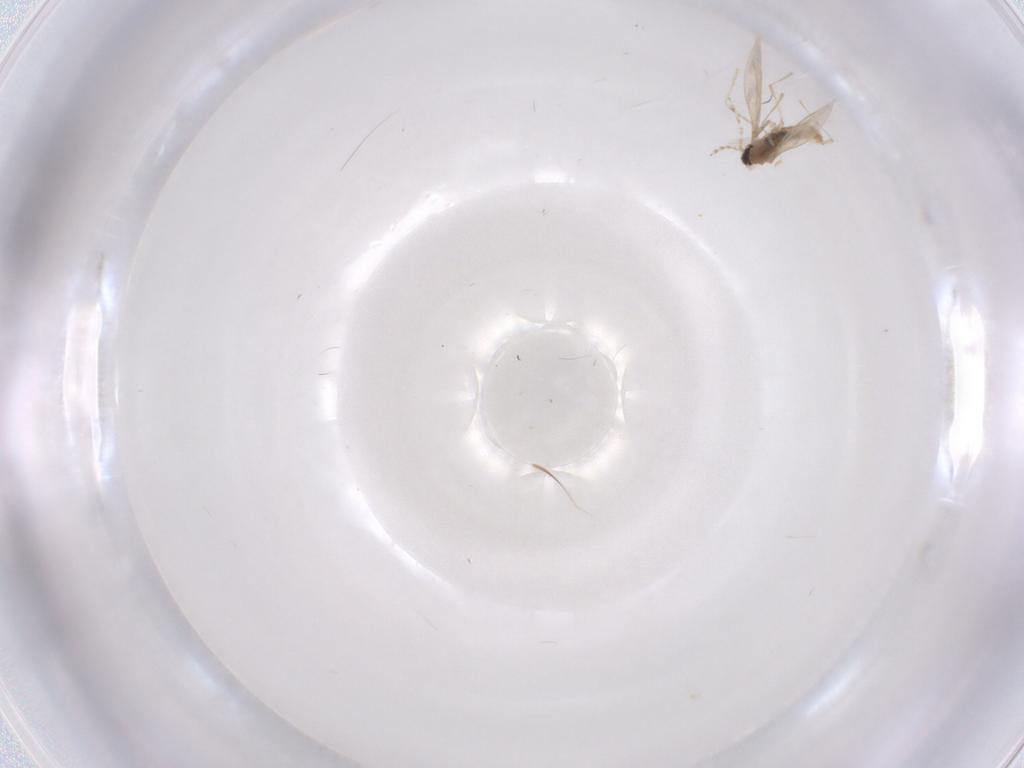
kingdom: Animalia
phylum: Arthropoda
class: Insecta
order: Diptera
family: Cecidomyiidae
